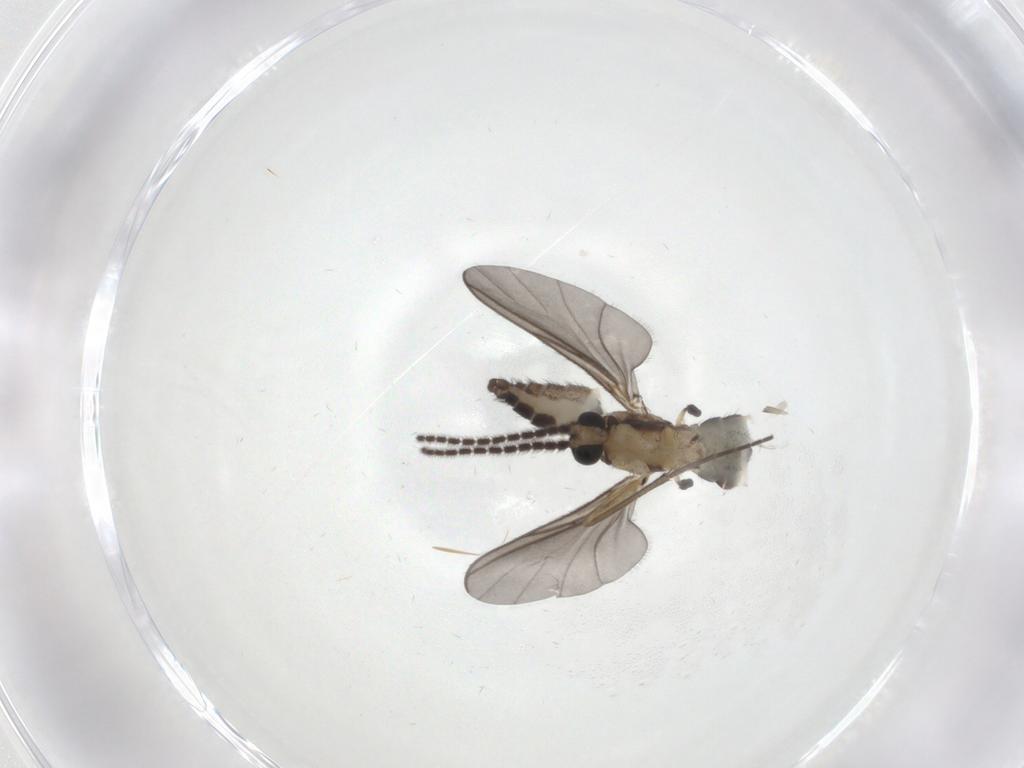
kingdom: Animalia
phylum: Arthropoda
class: Insecta
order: Diptera
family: Sciaridae
